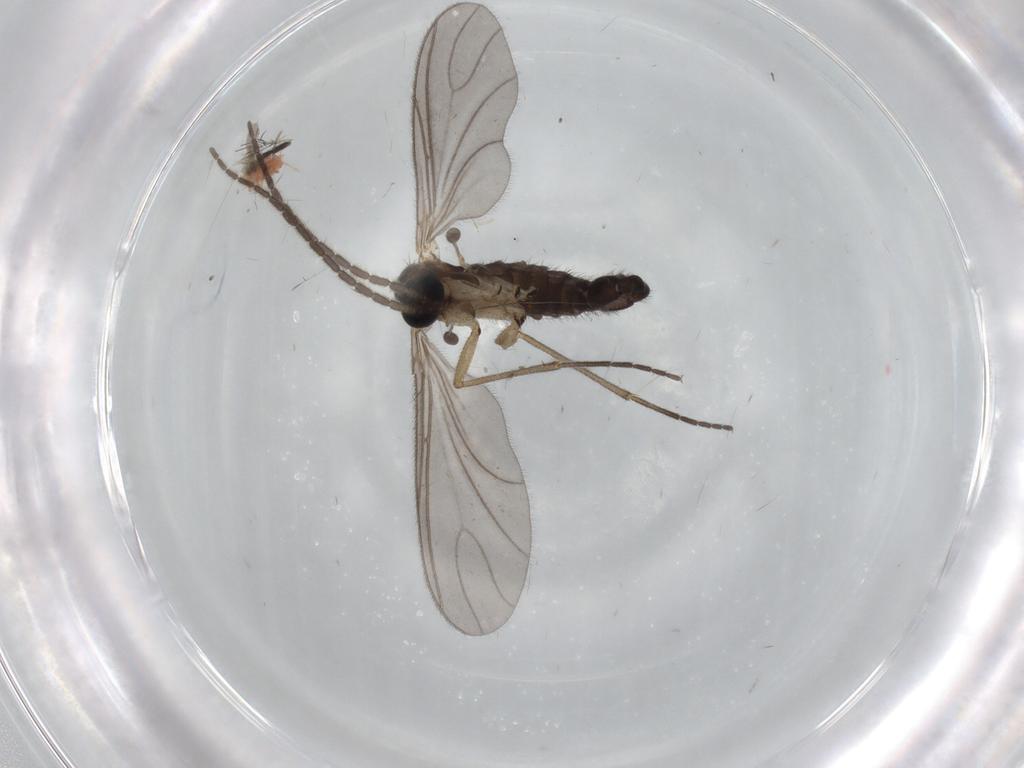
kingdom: Animalia
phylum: Arthropoda
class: Insecta
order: Diptera
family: Sciaridae
